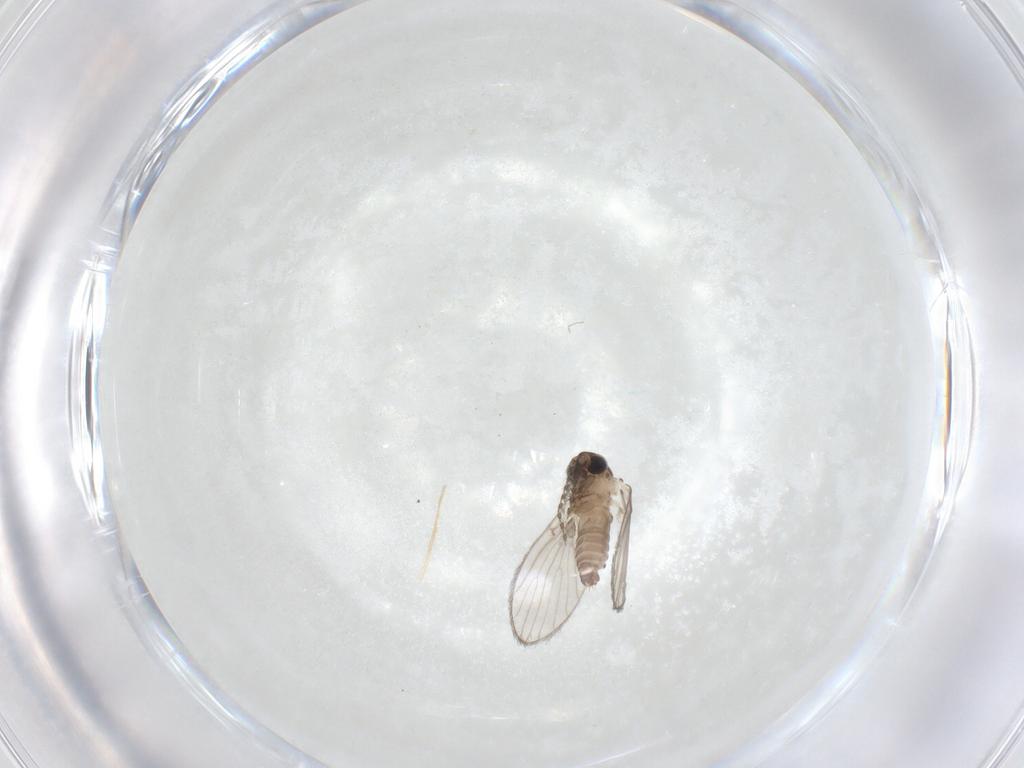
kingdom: Animalia
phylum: Arthropoda
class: Insecta
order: Diptera
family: Psychodidae
